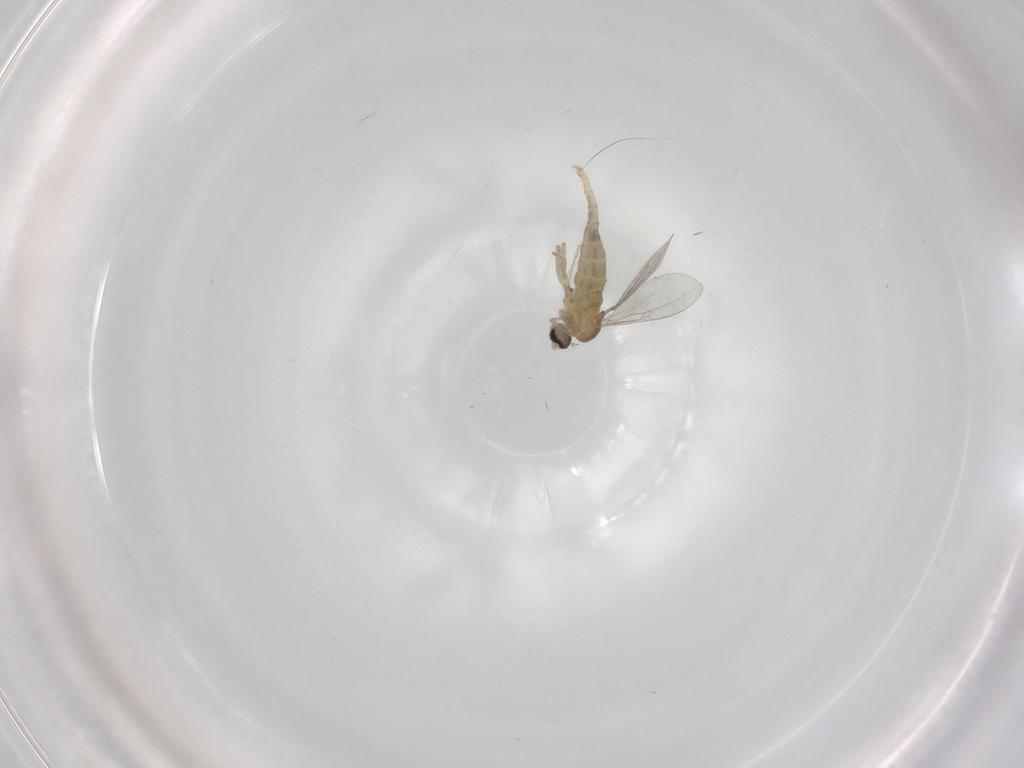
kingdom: Animalia
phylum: Arthropoda
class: Insecta
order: Diptera
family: Cecidomyiidae
